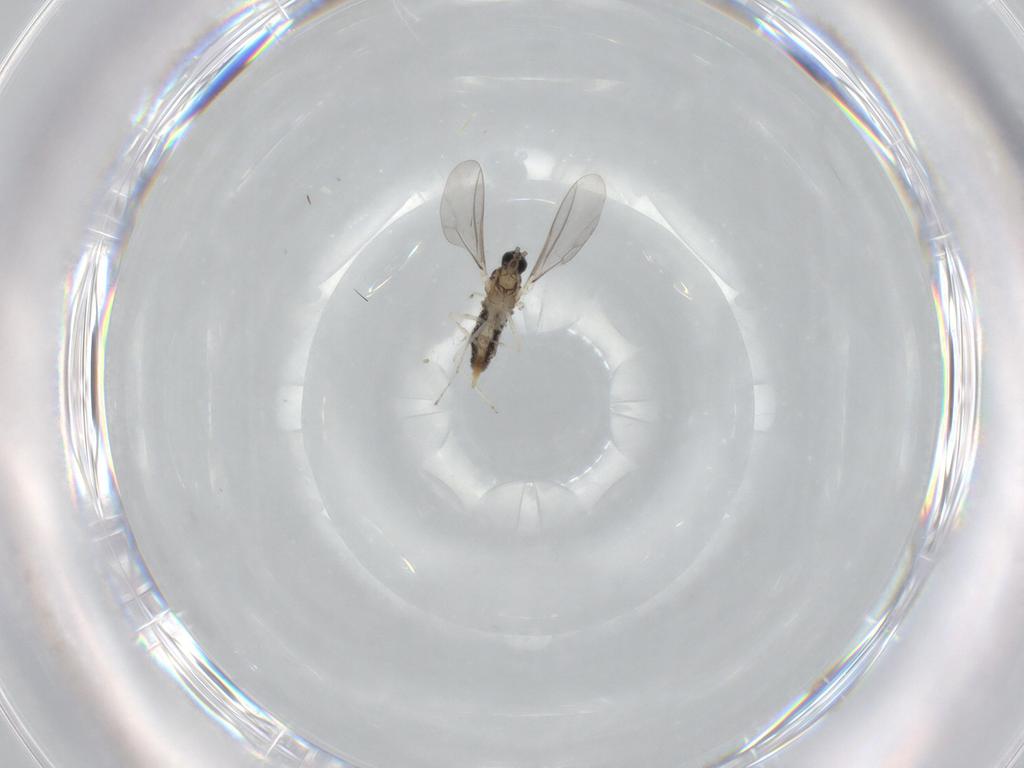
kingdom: Animalia
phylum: Arthropoda
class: Insecta
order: Diptera
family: Cecidomyiidae
